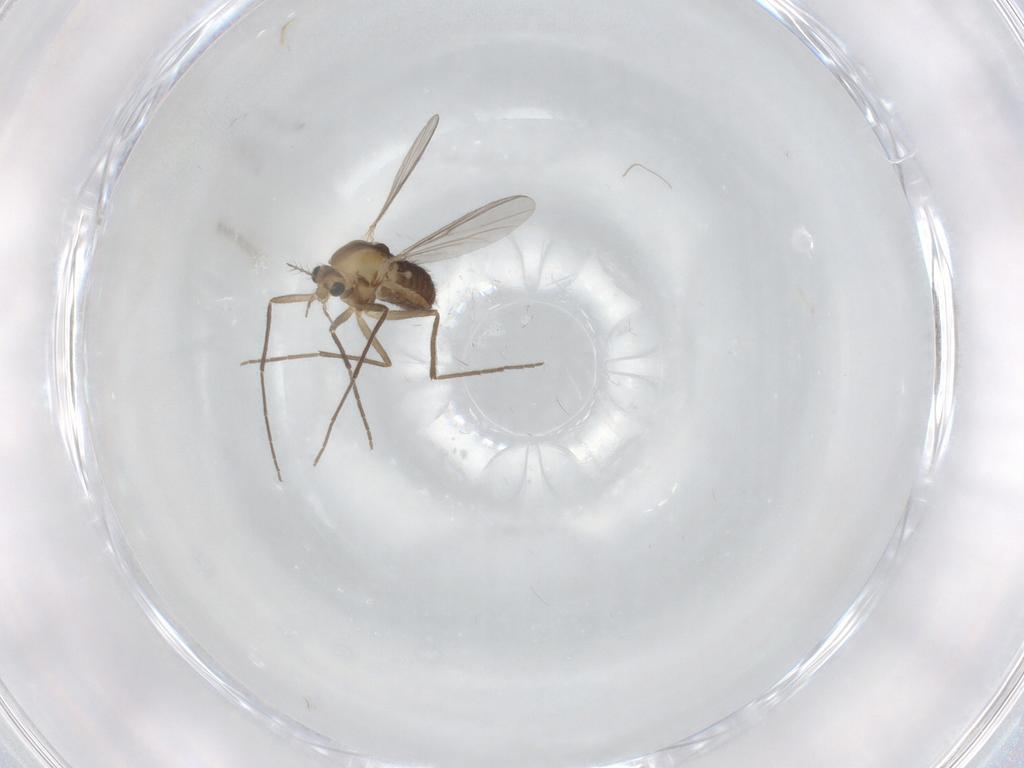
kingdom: Animalia
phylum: Arthropoda
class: Insecta
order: Diptera
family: Chironomidae
